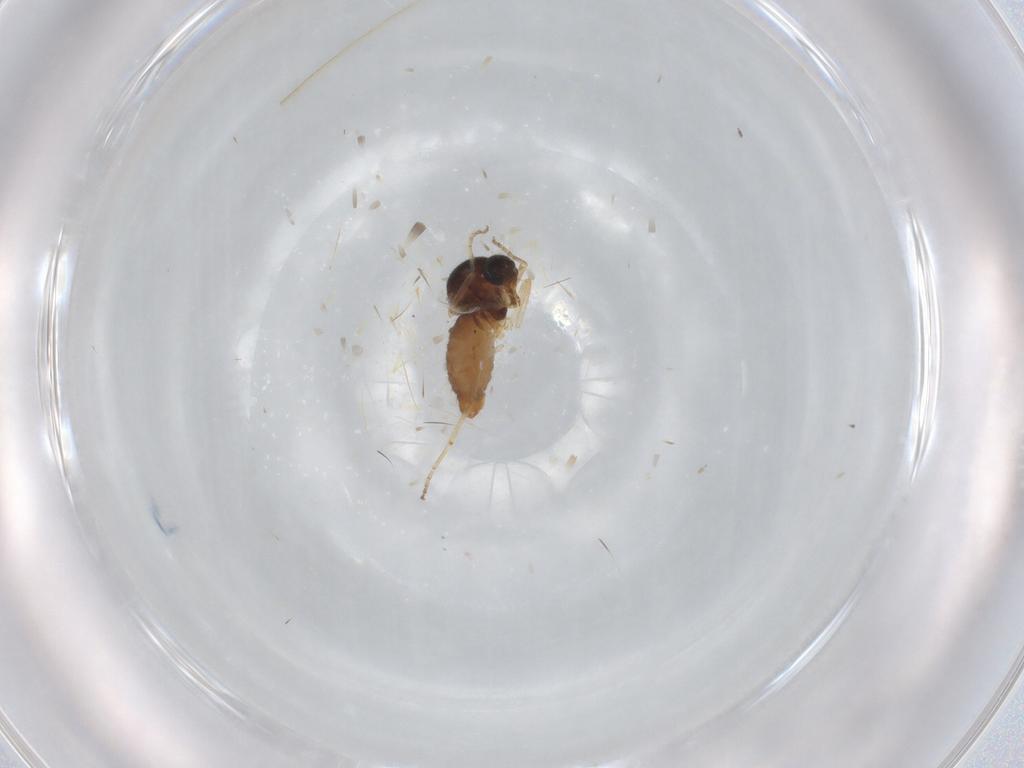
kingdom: Animalia
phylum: Arthropoda
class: Insecta
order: Diptera
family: Ceratopogonidae
